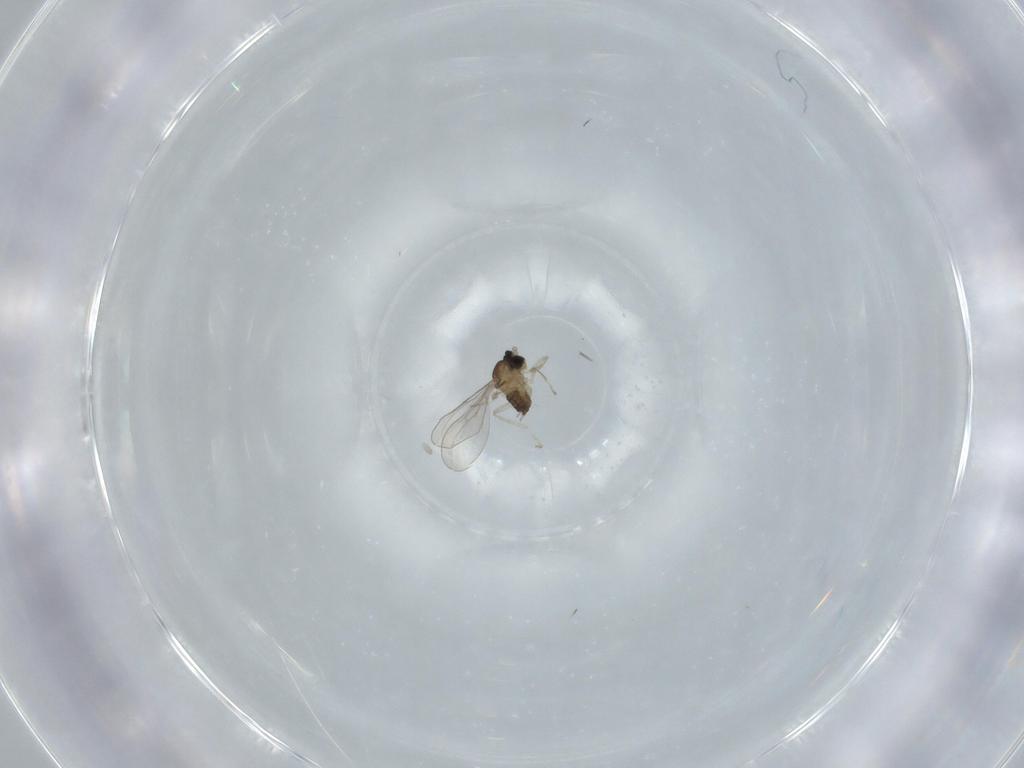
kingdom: Animalia
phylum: Arthropoda
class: Insecta
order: Diptera
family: Cecidomyiidae
